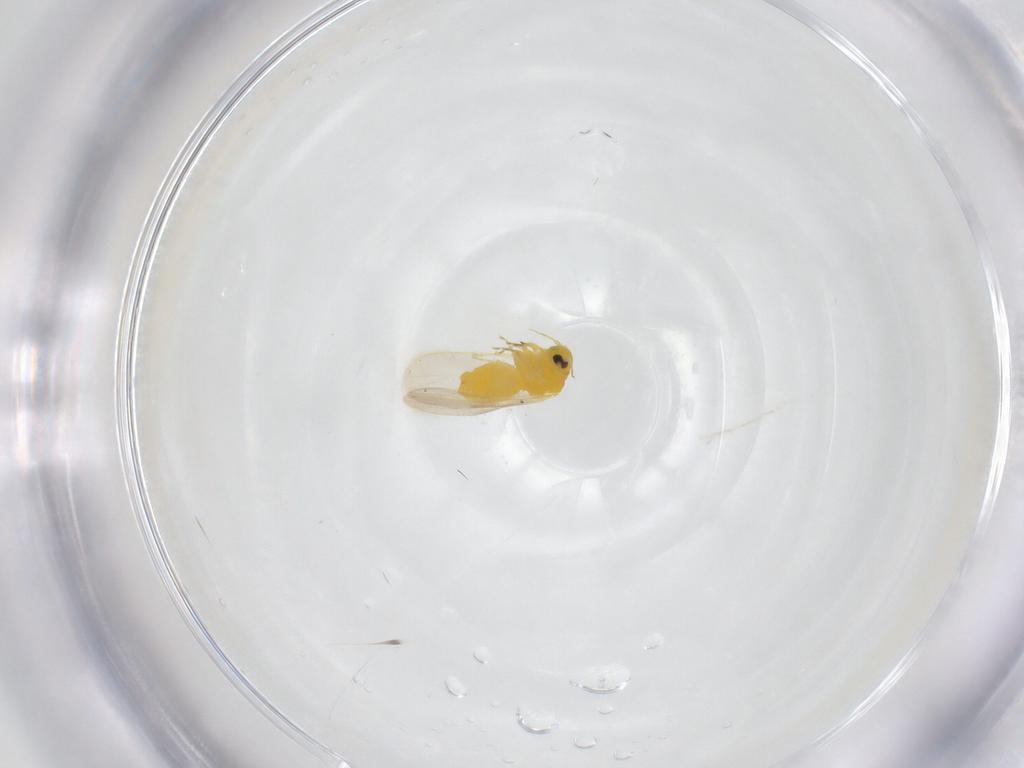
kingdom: Animalia
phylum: Arthropoda
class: Insecta
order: Hemiptera
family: Aleyrodidae
